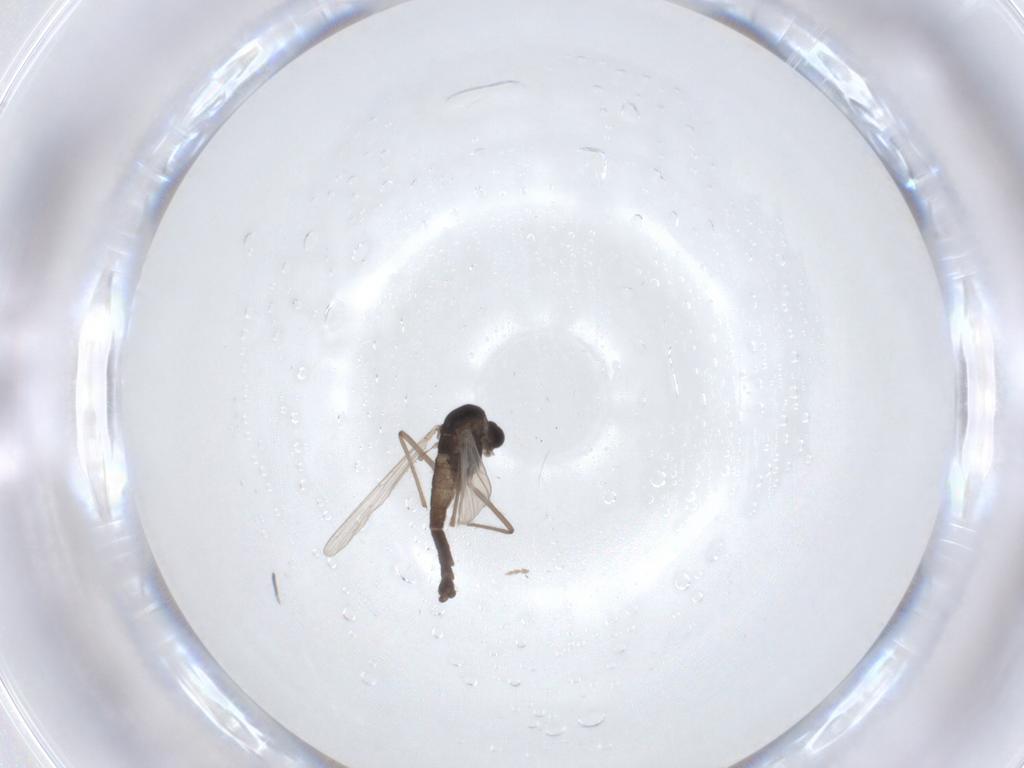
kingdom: Animalia
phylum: Arthropoda
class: Insecta
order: Diptera
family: Cecidomyiidae
